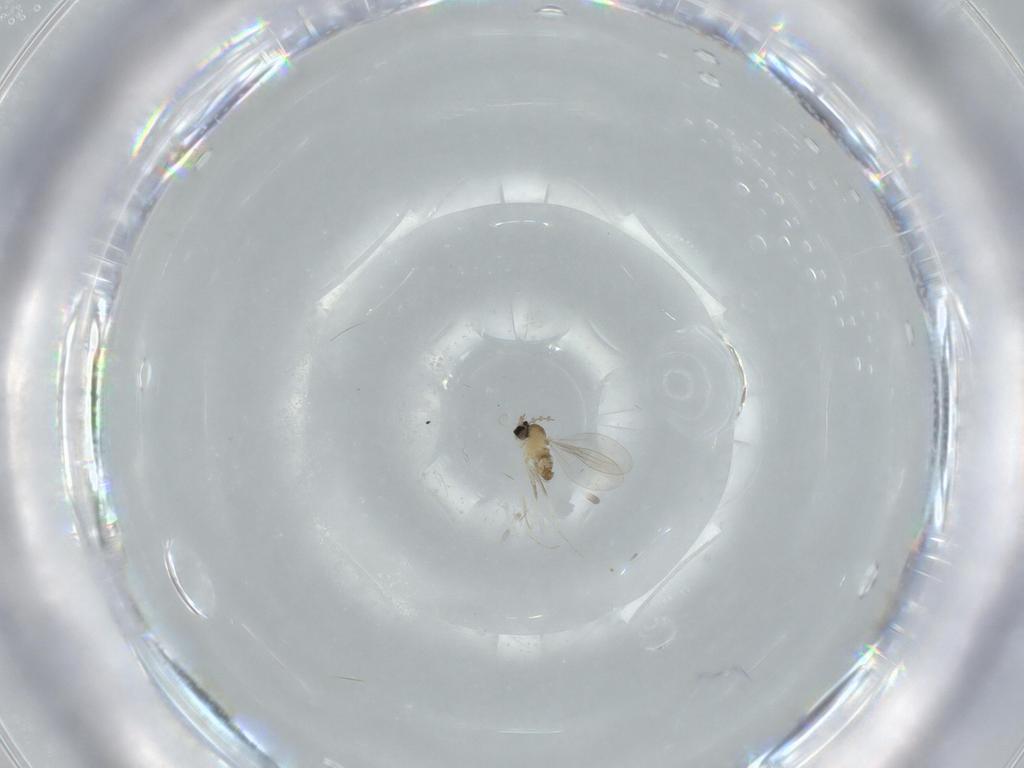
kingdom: Animalia
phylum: Arthropoda
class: Insecta
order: Diptera
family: Cecidomyiidae
